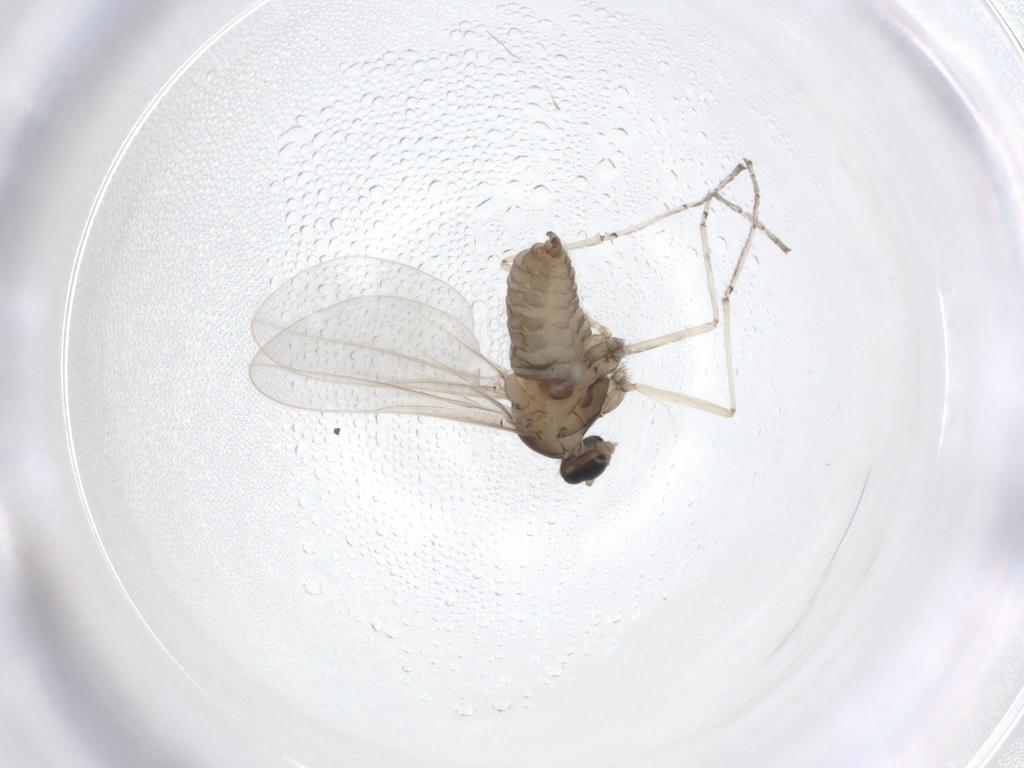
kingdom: Animalia
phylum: Arthropoda
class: Insecta
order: Diptera
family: Cecidomyiidae
